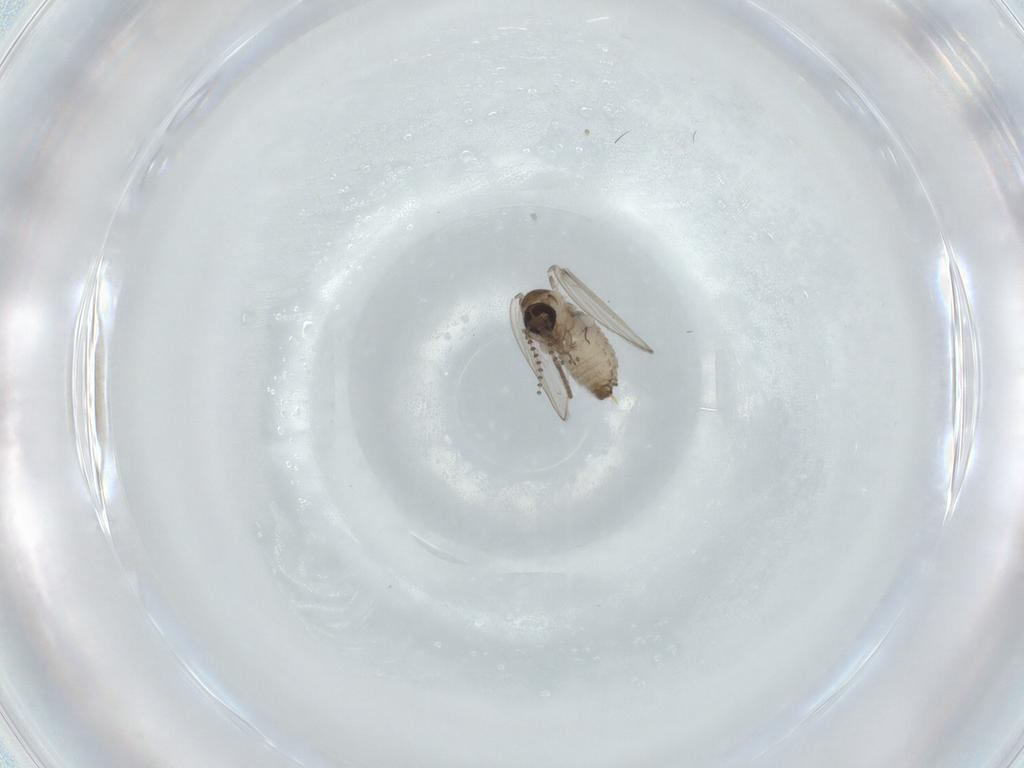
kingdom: Animalia
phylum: Arthropoda
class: Insecta
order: Diptera
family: Psychodidae
